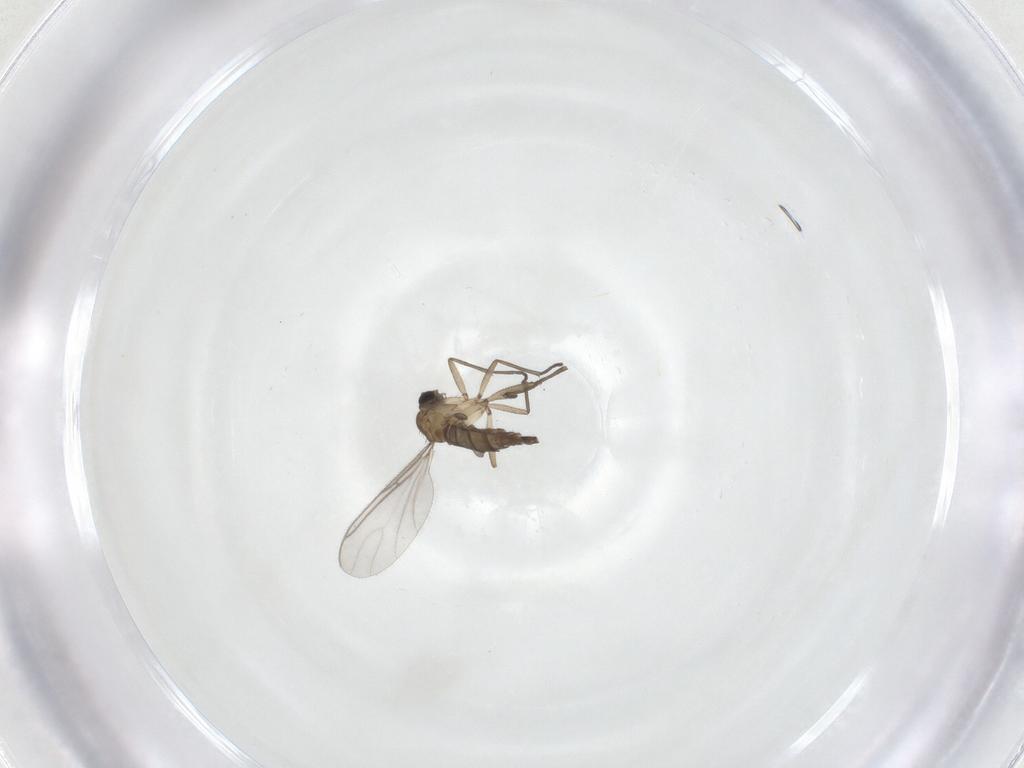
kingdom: Animalia
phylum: Arthropoda
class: Insecta
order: Diptera
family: Sciaridae
